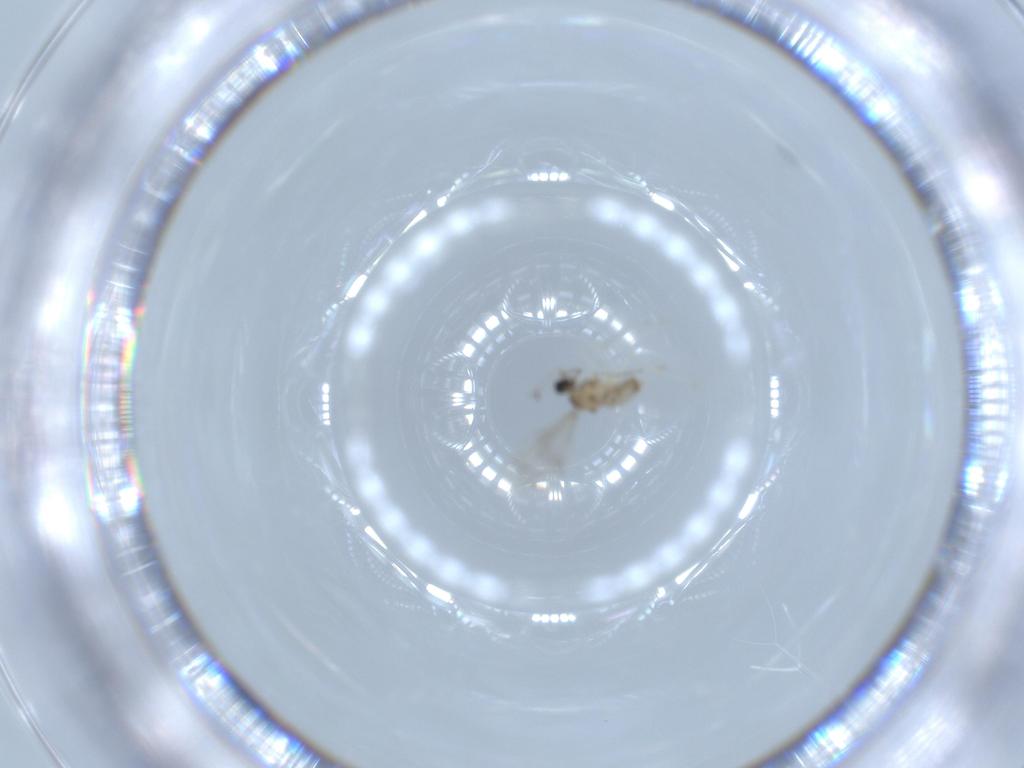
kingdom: Animalia
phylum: Arthropoda
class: Insecta
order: Diptera
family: Cecidomyiidae
